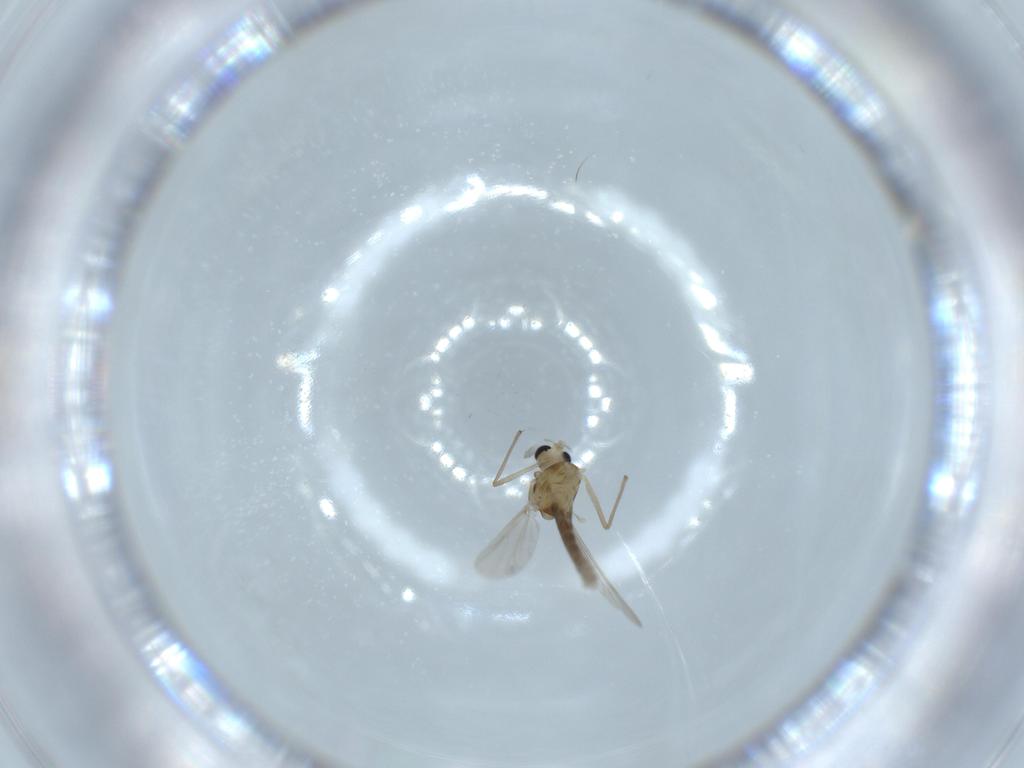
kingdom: Animalia
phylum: Arthropoda
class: Insecta
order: Diptera
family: Chironomidae
